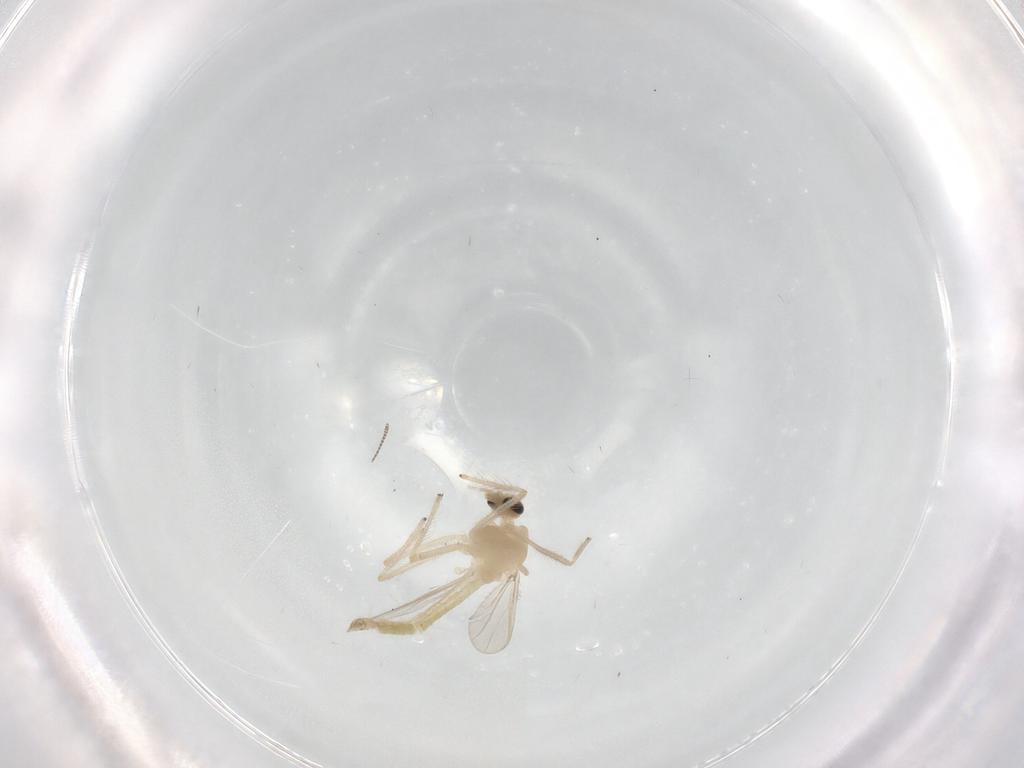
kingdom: Animalia
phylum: Arthropoda
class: Insecta
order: Diptera
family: Chironomidae
